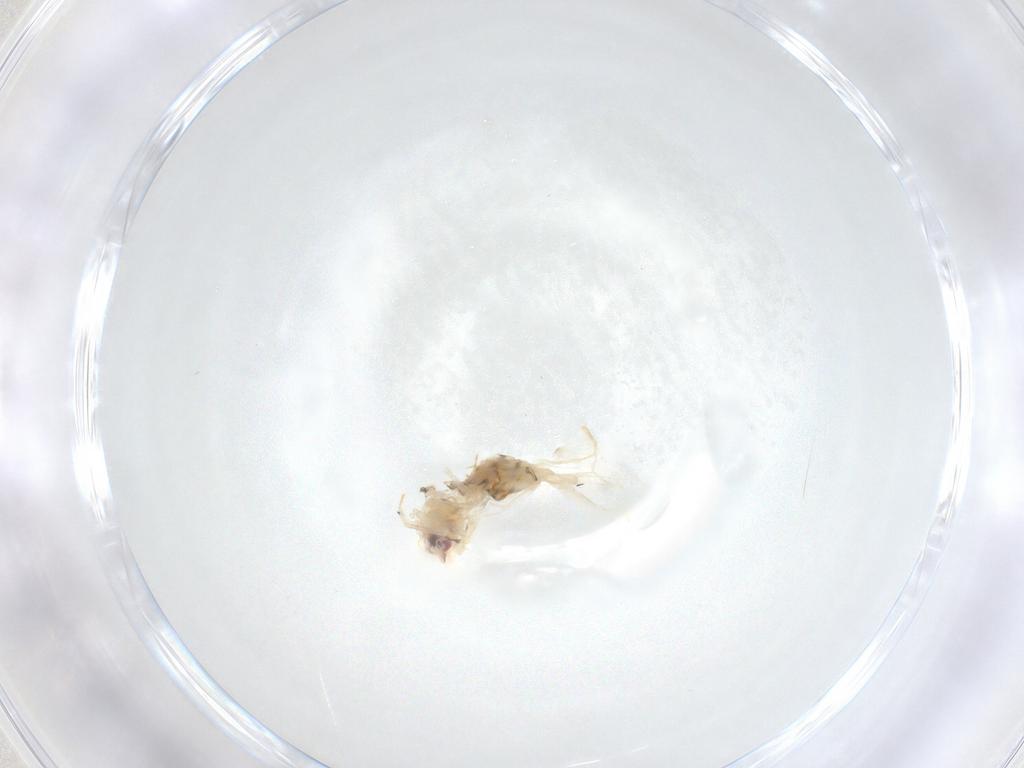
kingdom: Animalia
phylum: Arthropoda
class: Insecta
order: Hemiptera
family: Aleyrodidae
